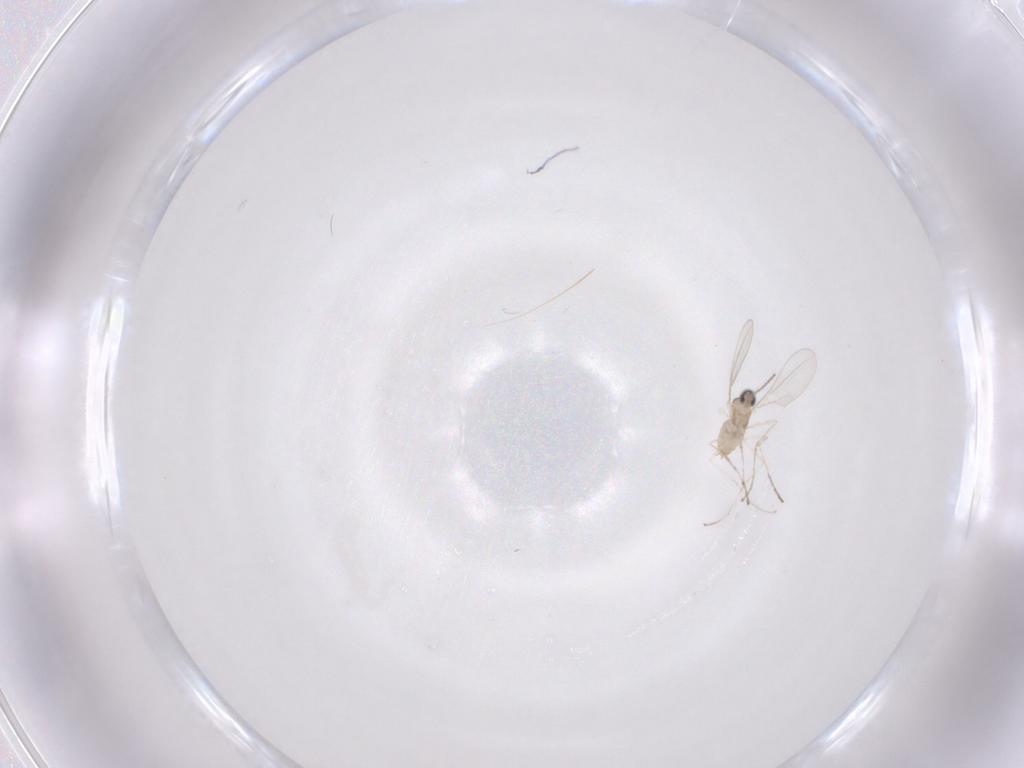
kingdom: Animalia
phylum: Arthropoda
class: Insecta
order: Diptera
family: Cecidomyiidae
